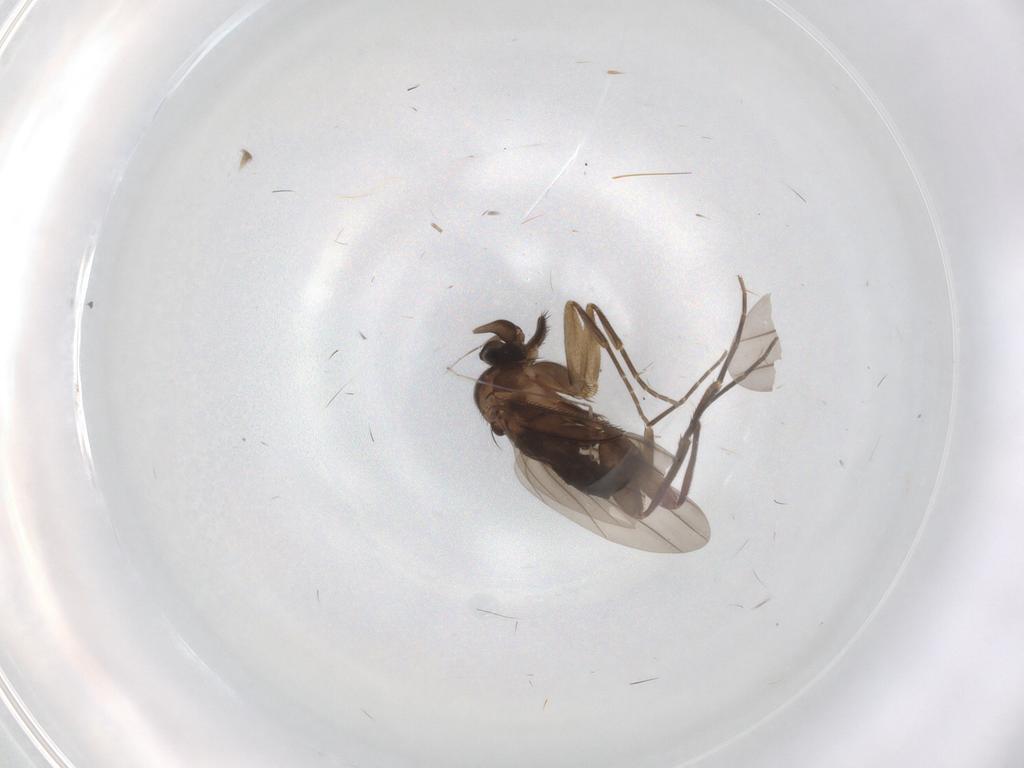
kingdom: Animalia
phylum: Arthropoda
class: Insecta
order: Diptera
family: Phoridae
